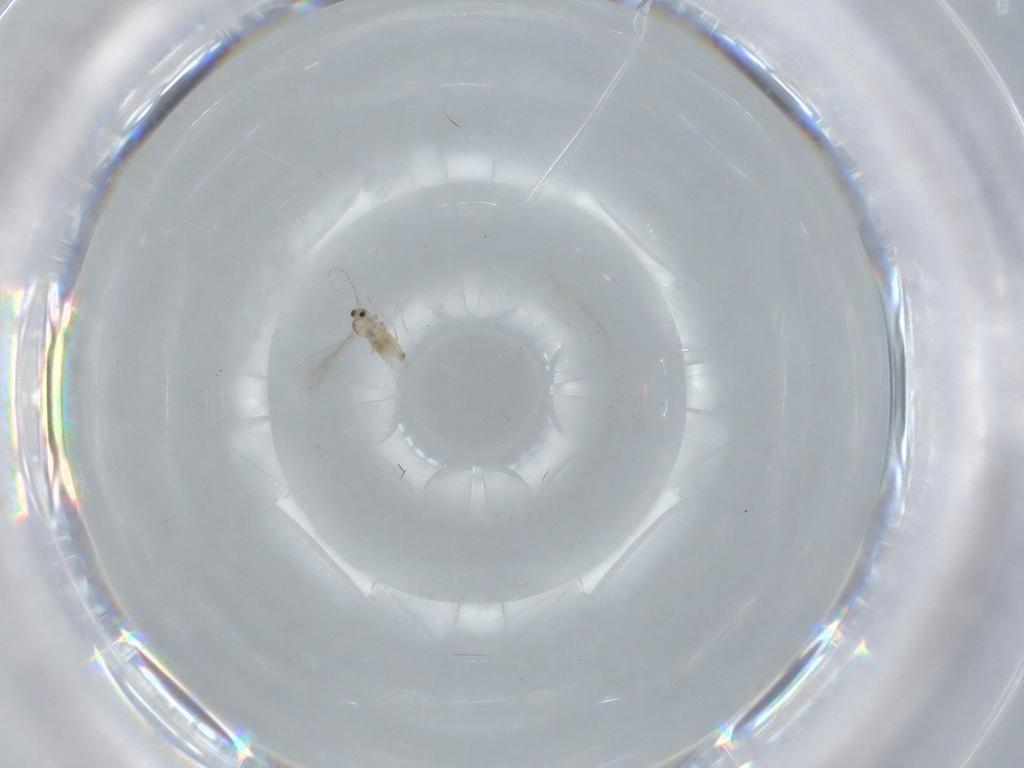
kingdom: Animalia
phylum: Arthropoda
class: Insecta
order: Diptera
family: Cecidomyiidae
